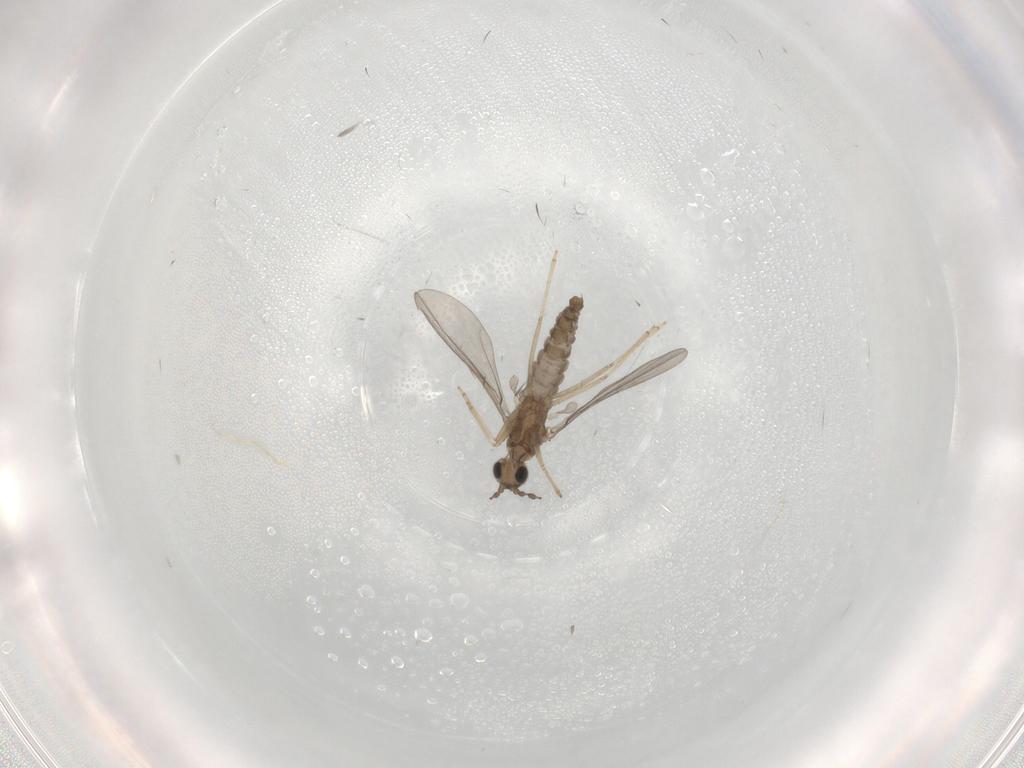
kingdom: Animalia
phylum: Arthropoda
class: Insecta
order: Diptera
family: Cecidomyiidae
